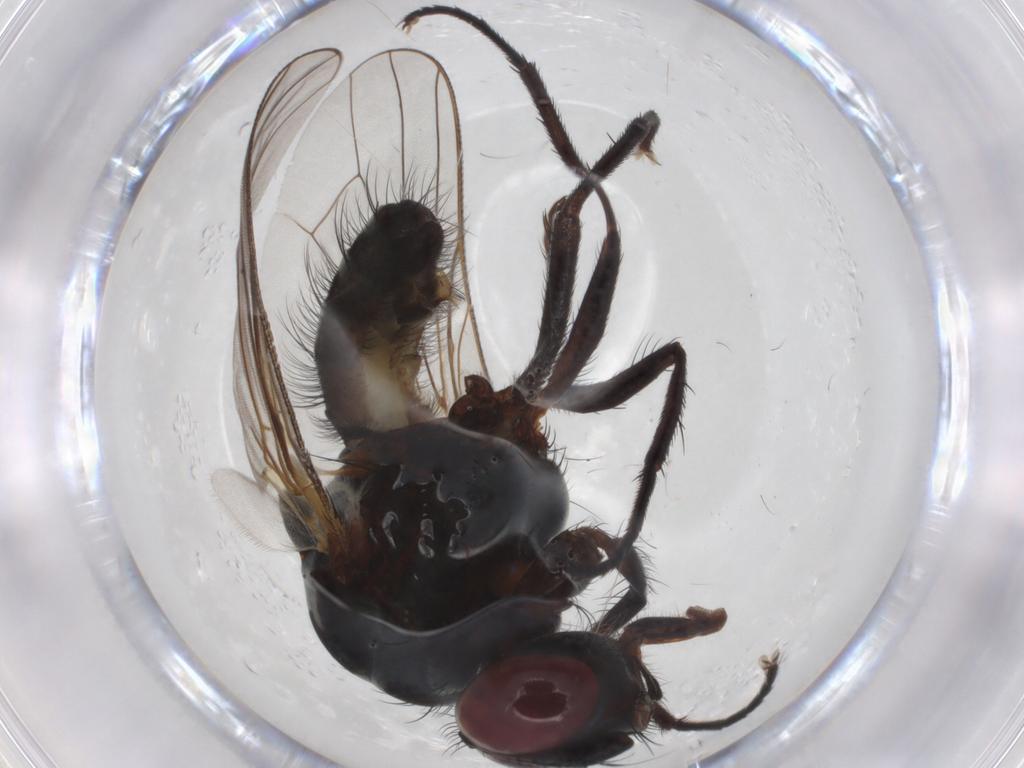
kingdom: Animalia
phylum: Arthropoda
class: Insecta
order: Diptera
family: Anthomyiidae
